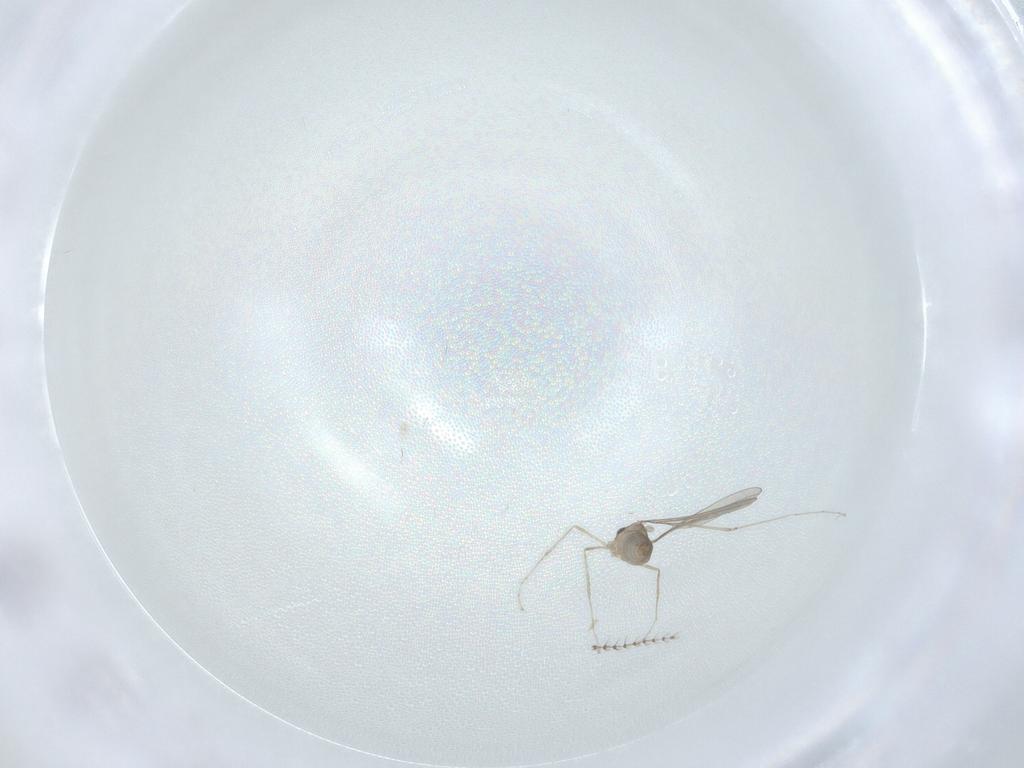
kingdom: Animalia
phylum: Arthropoda
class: Insecta
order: Diptera
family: Cecidomyiidae
